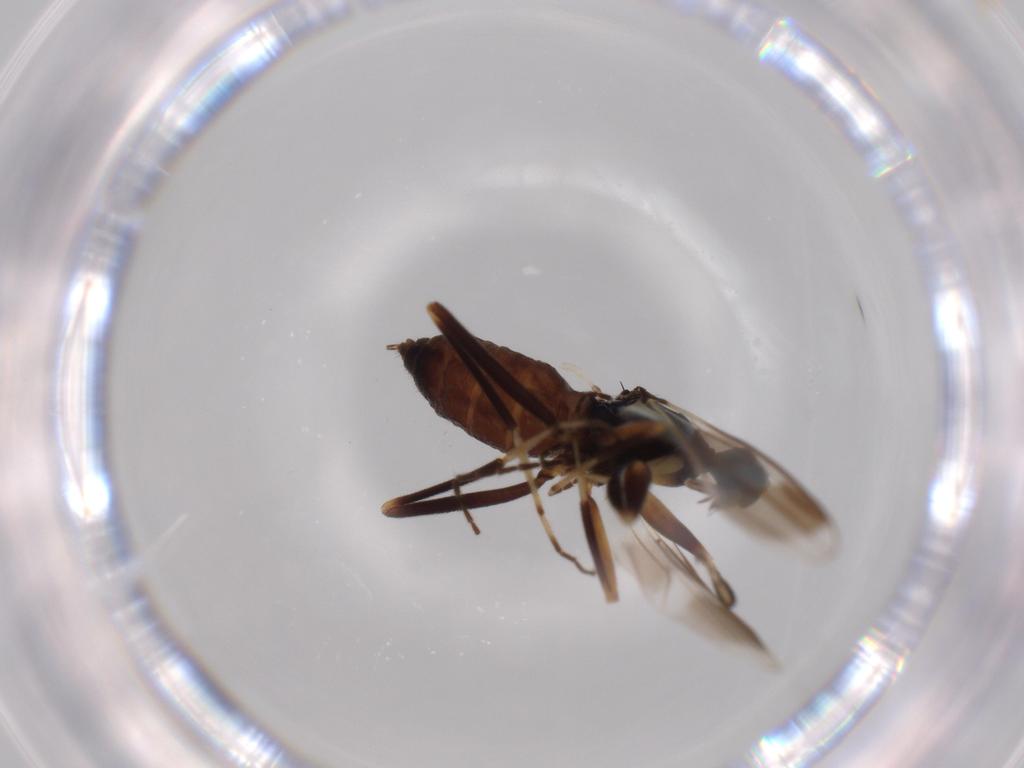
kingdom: Animalia
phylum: Arthropoda
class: Insecta
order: Diptera
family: Hybotidae
